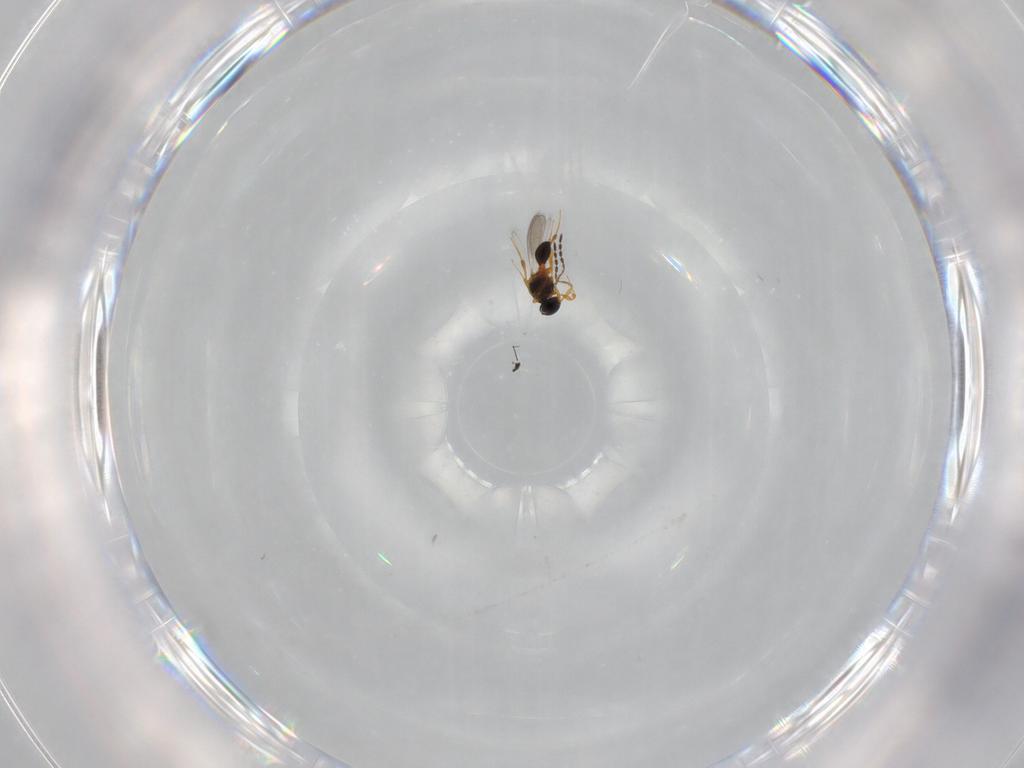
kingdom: Animalia
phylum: Arthropoda
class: Insecta
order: Hymenoptera
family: Platygastridae
